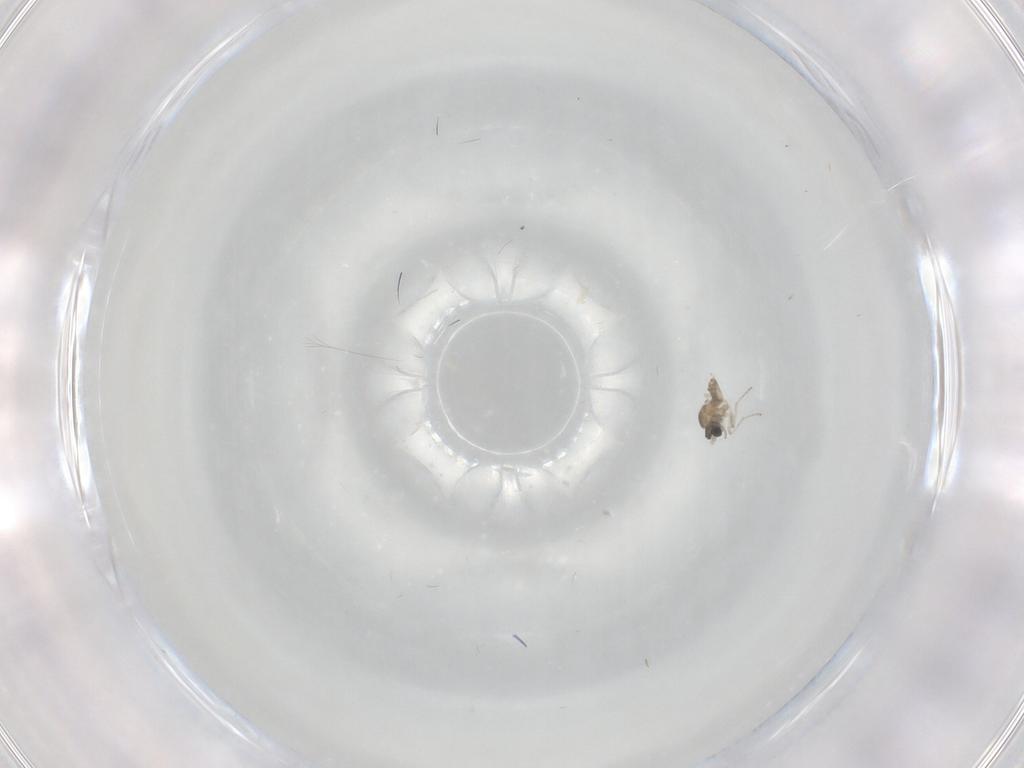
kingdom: Animalia
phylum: Arthropoda
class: Insecta
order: Diptera
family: Cecidomyiidae
